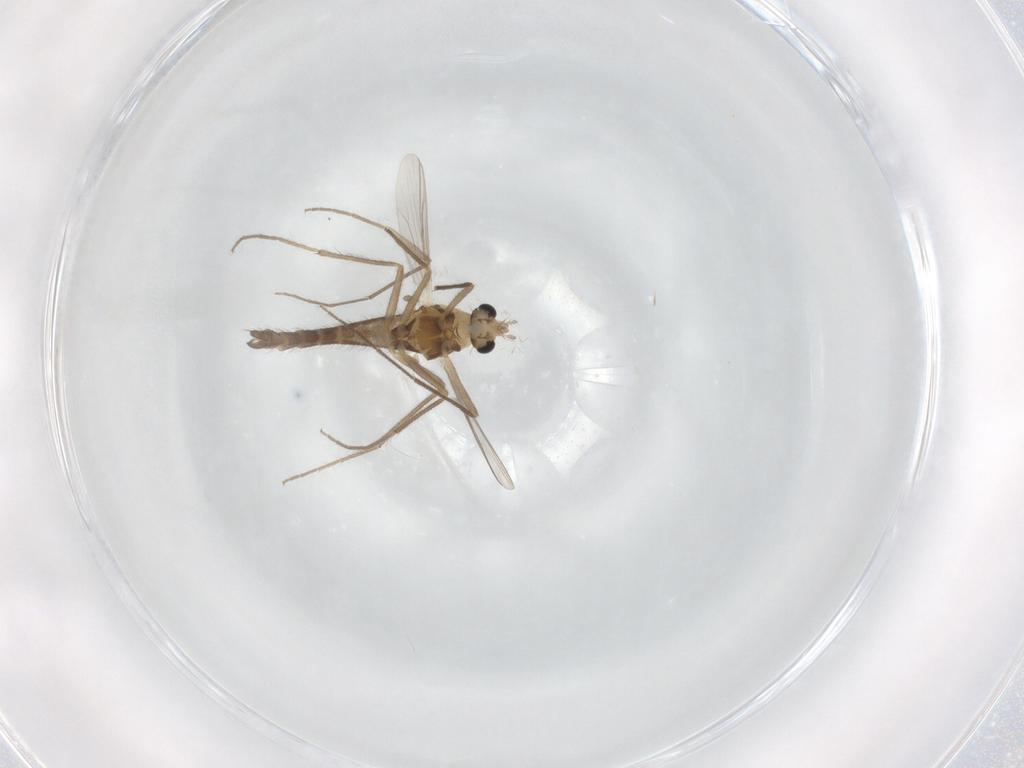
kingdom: Animalia
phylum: Arthropoda
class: Insecta
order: Diptera
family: Chironomidae
